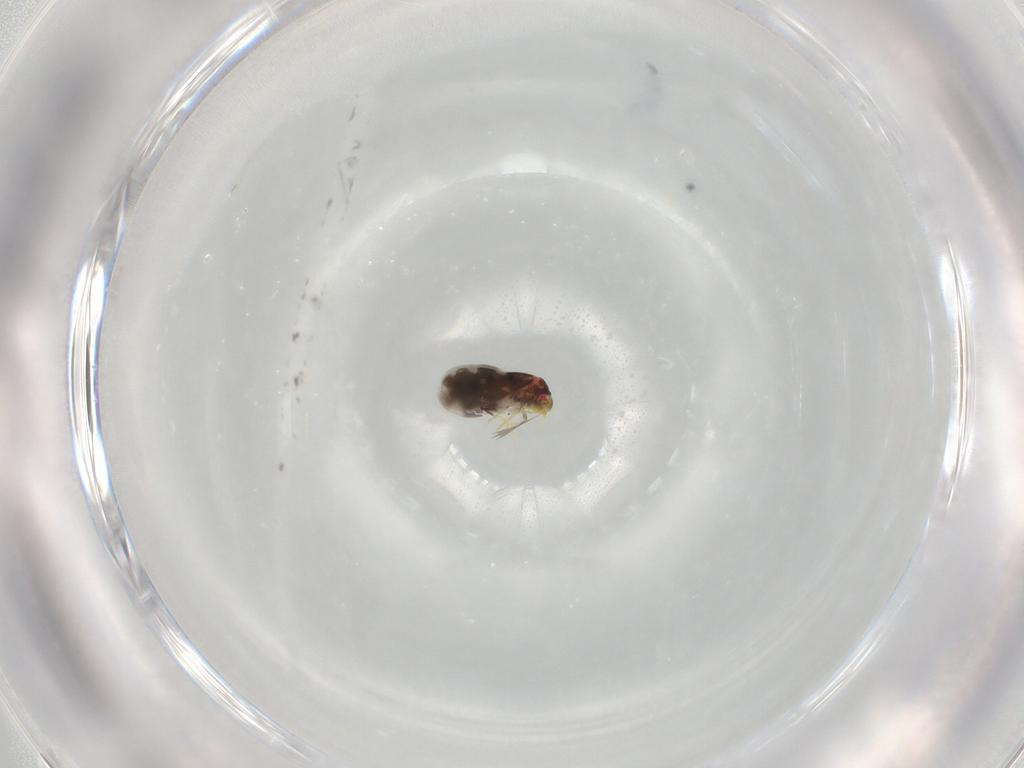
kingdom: Animalia
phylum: Arthropoda
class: Insecta
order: Hemiptera
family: Aleyrodidae
